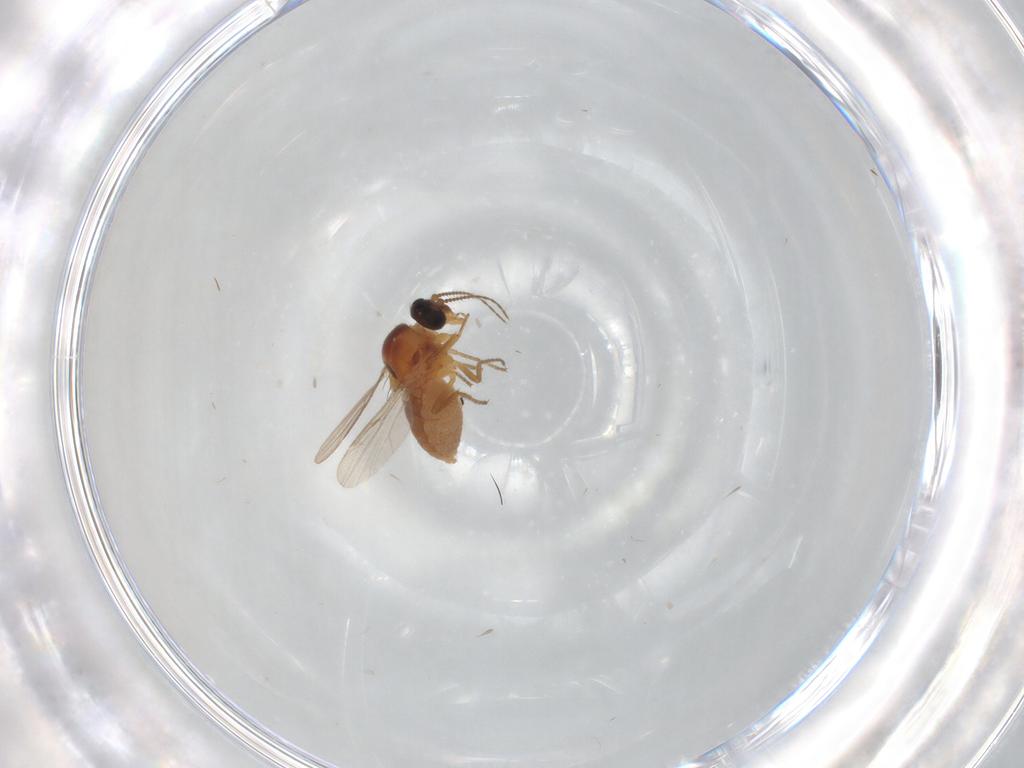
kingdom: Animalia
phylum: Arthropoda
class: Insecta
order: Diptera
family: Ceratopogonidae
